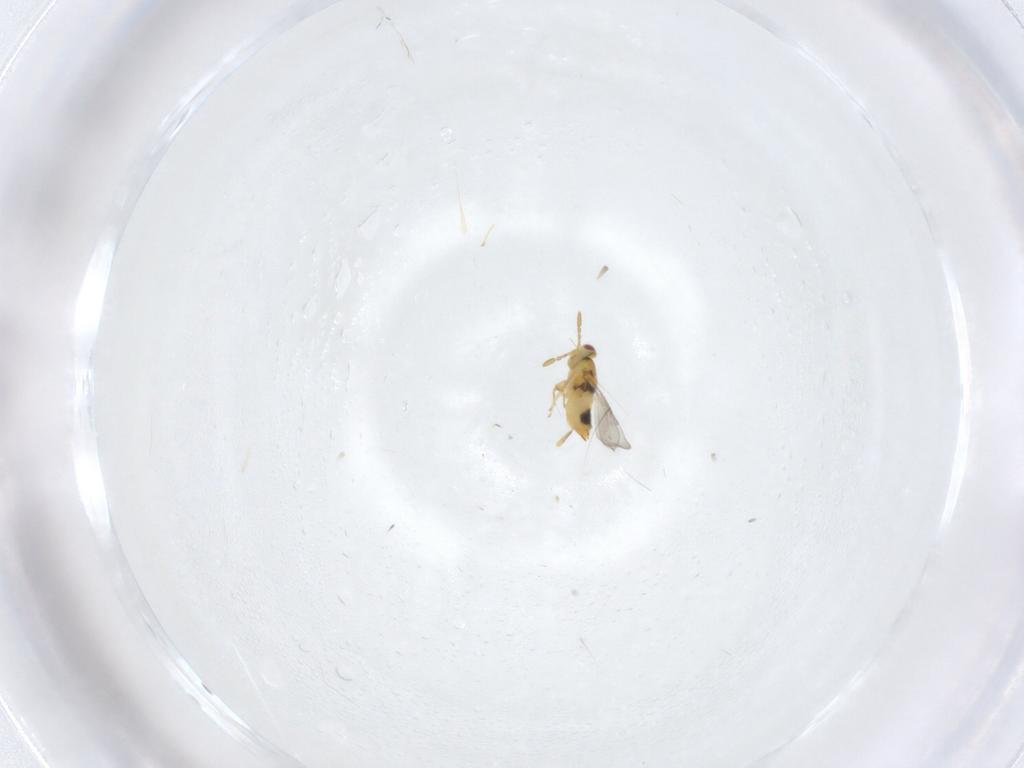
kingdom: Animalia
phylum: Arthropoda
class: Insecta
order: Hymenoptera
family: Aphelinidae
